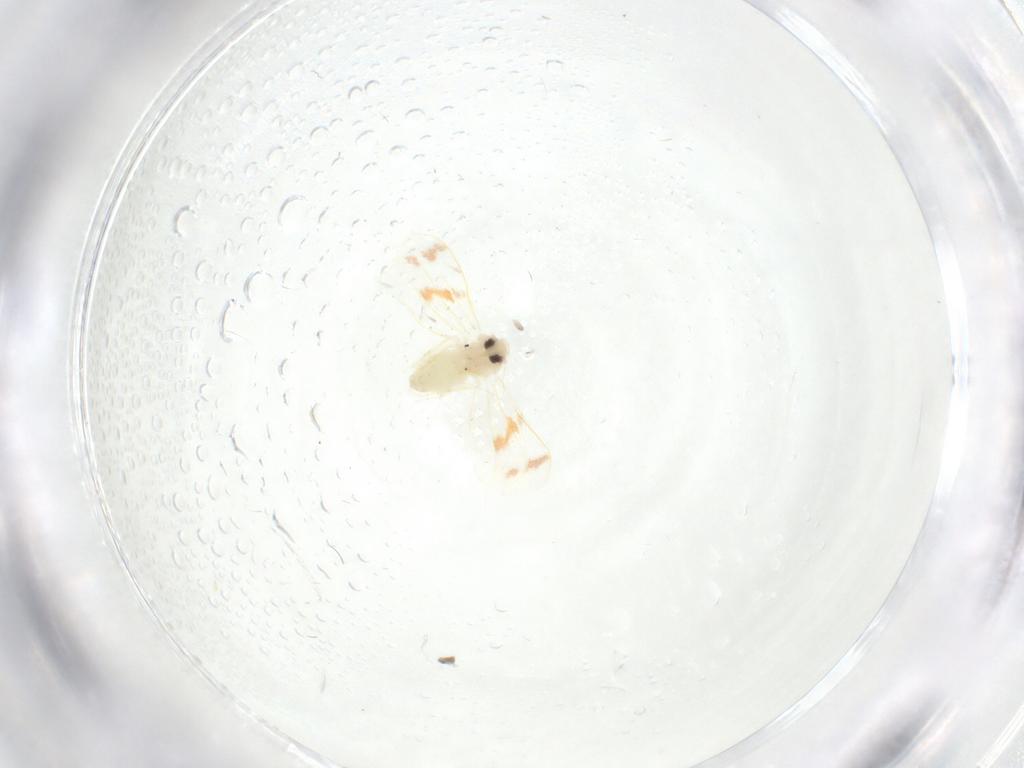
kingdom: Animalia
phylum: Arthropoda
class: Insecta
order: Hemiptera
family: Aleyrodidae
